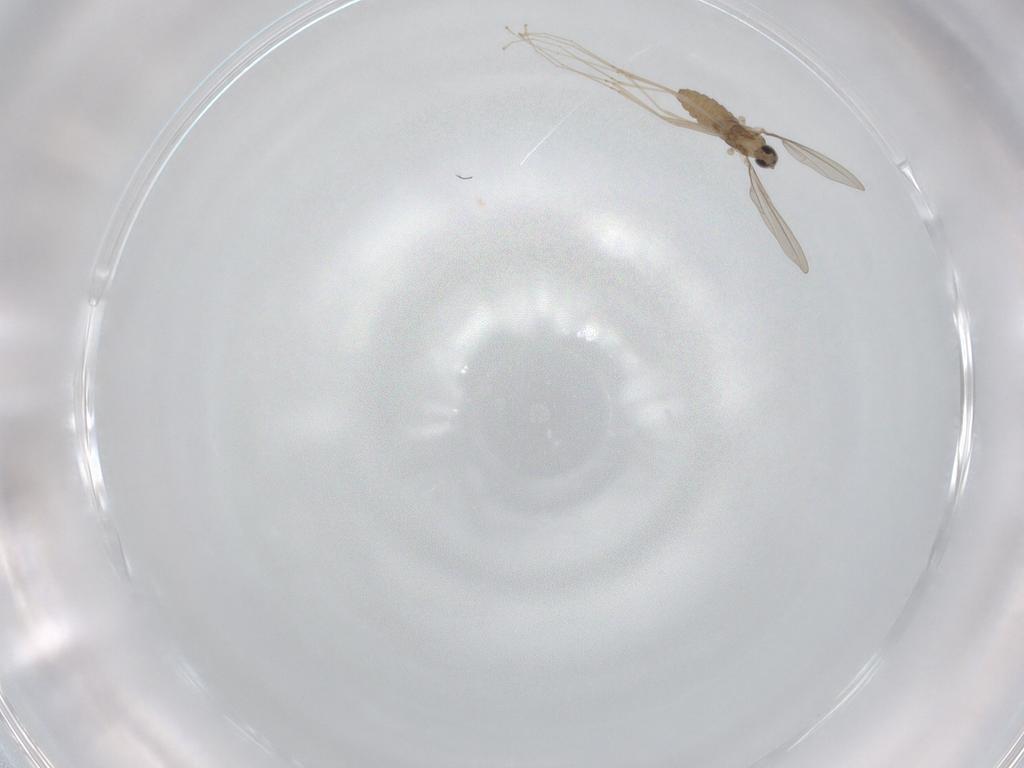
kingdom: Animalia
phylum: Arthropoda
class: Insecta
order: Diptera
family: Cecidomyiidae
